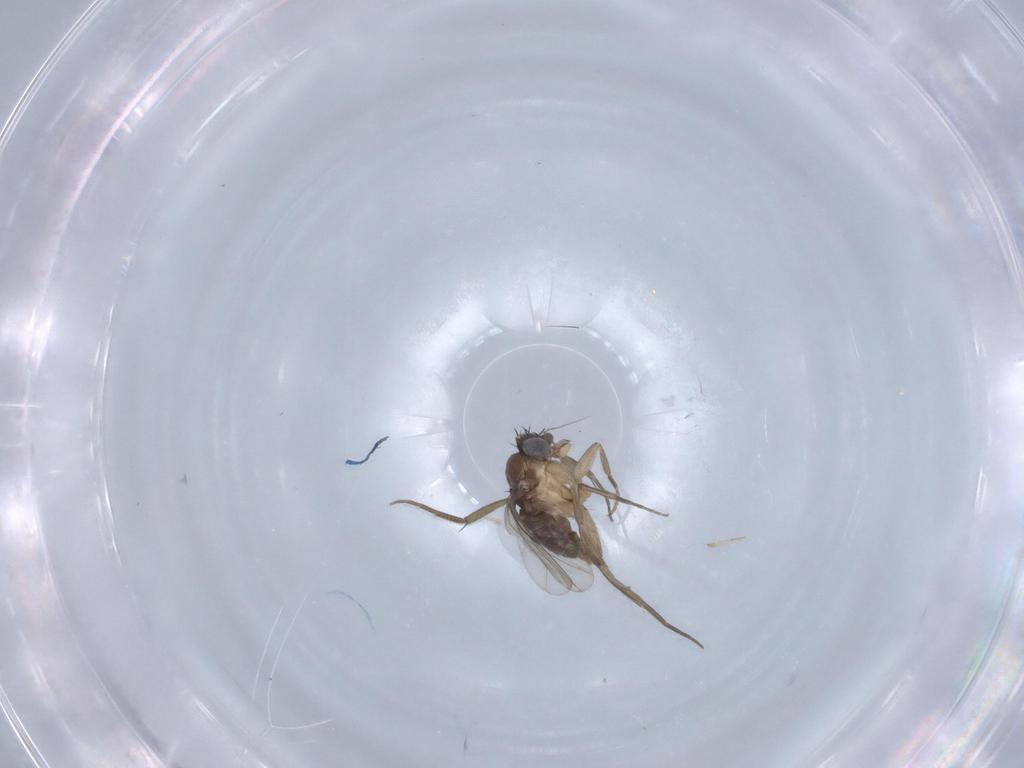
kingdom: Animalia
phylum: Arthropoda
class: Insecta
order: Diptera
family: Phoridae
